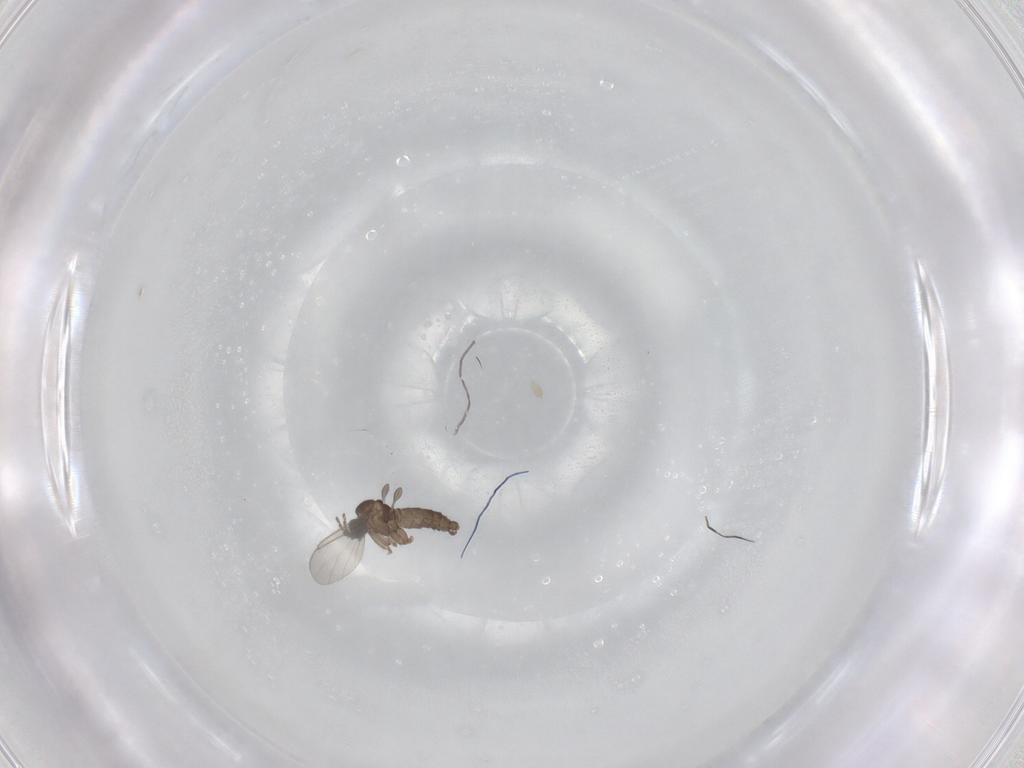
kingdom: Animalia
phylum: Arthropoda
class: Insecta
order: Diptera
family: Sciaridae
